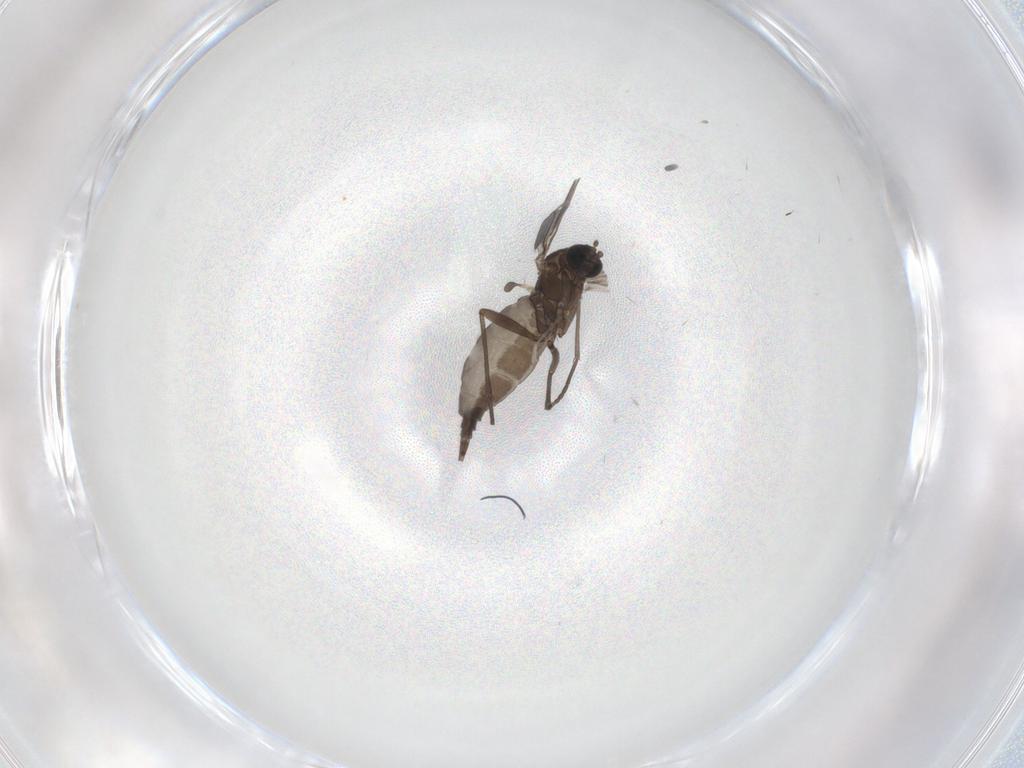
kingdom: Animalia
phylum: Arthropoda
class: Insecta
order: Diptera
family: Sciaridae
